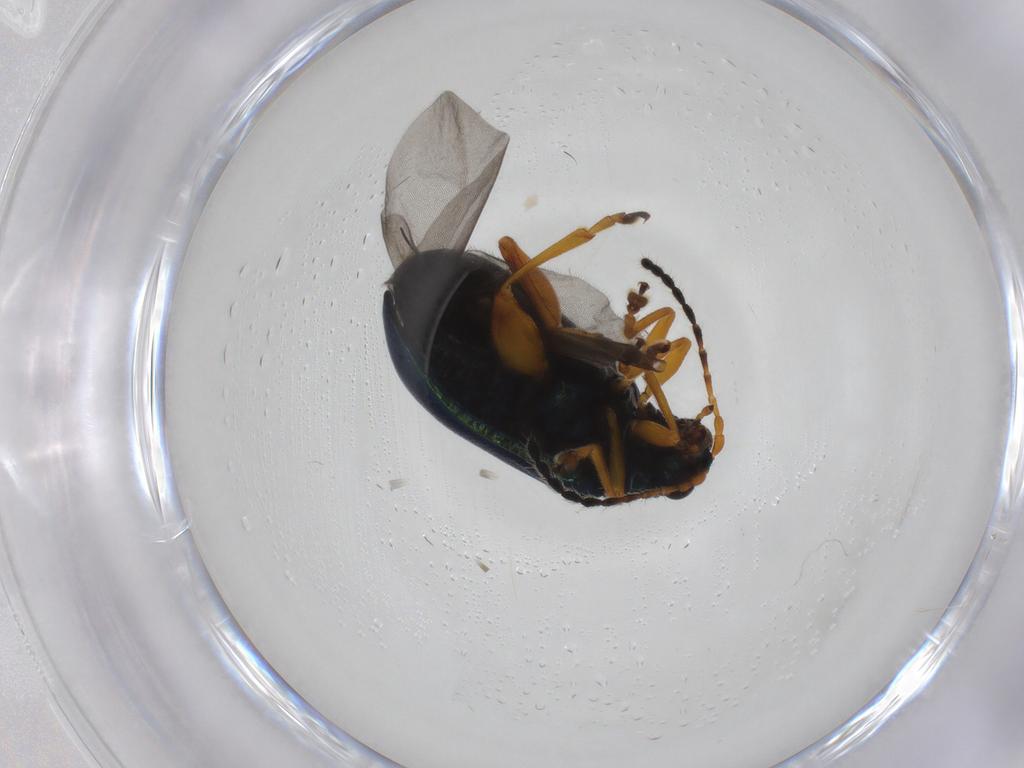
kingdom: Animalia
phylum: Arthropoda
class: Insecta
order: Coleoptera
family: Chrysomelidae
